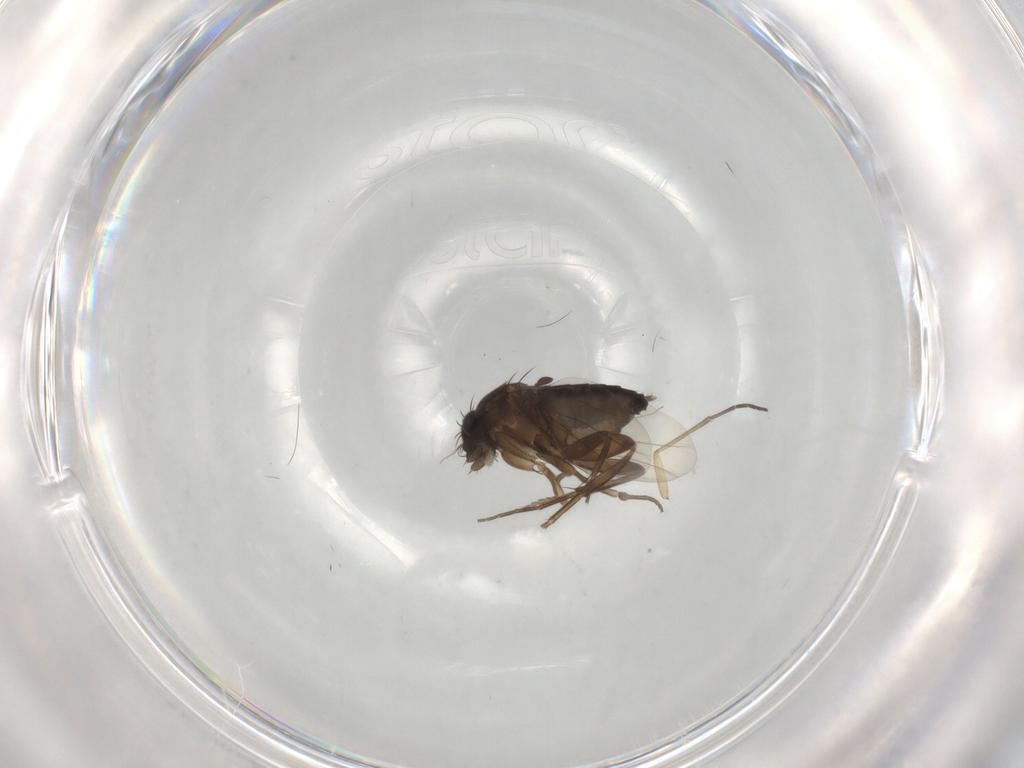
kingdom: Animalia
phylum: Arthropoda
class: Insecta
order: Diptera
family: Phoridae
